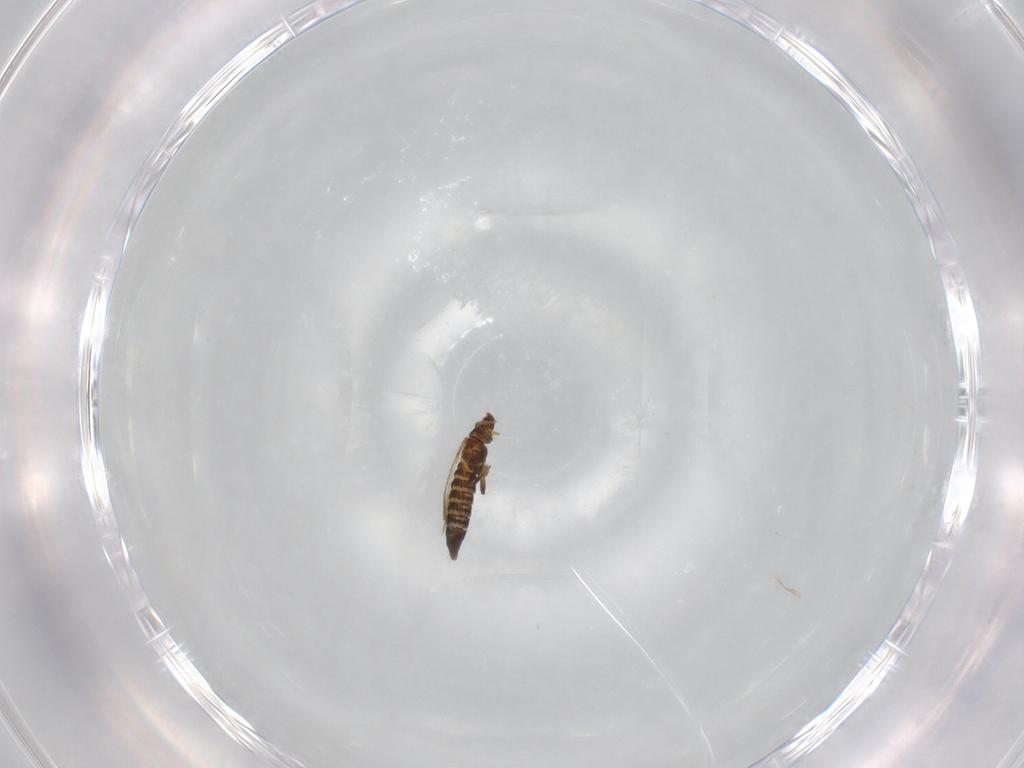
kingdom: Animalia
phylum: Arthropoda
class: Insecta
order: Thysanoptera
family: Thripidae
